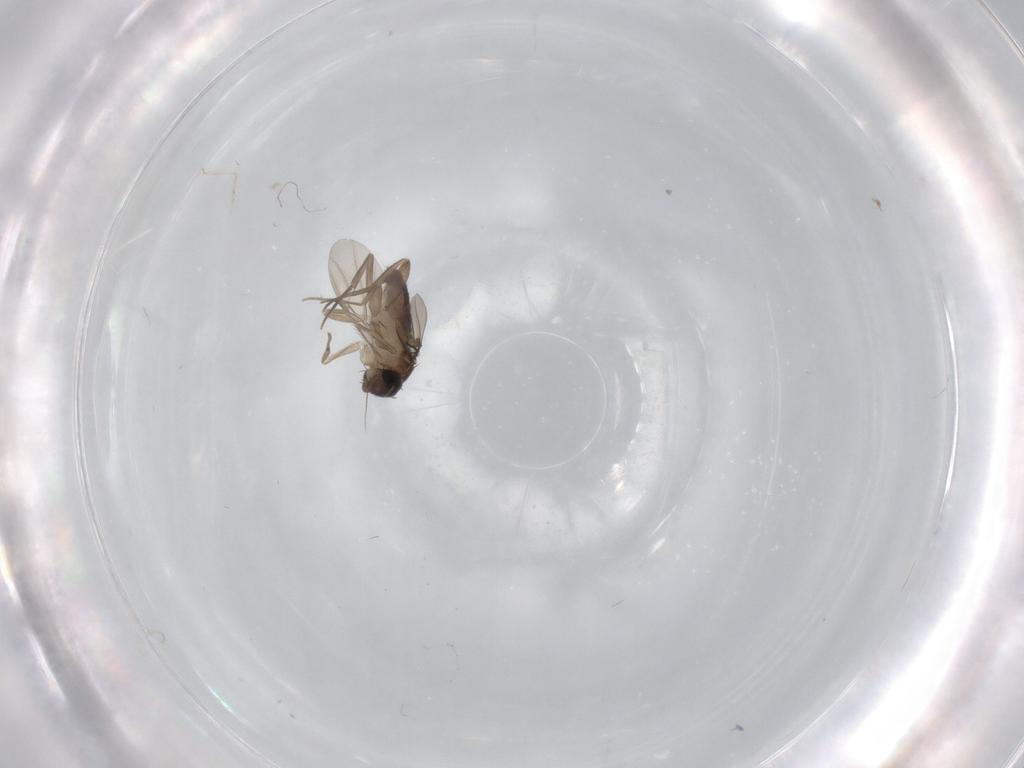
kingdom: Animalia
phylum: Arthropoda
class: Insecta
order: Diptera
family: Phoridae
